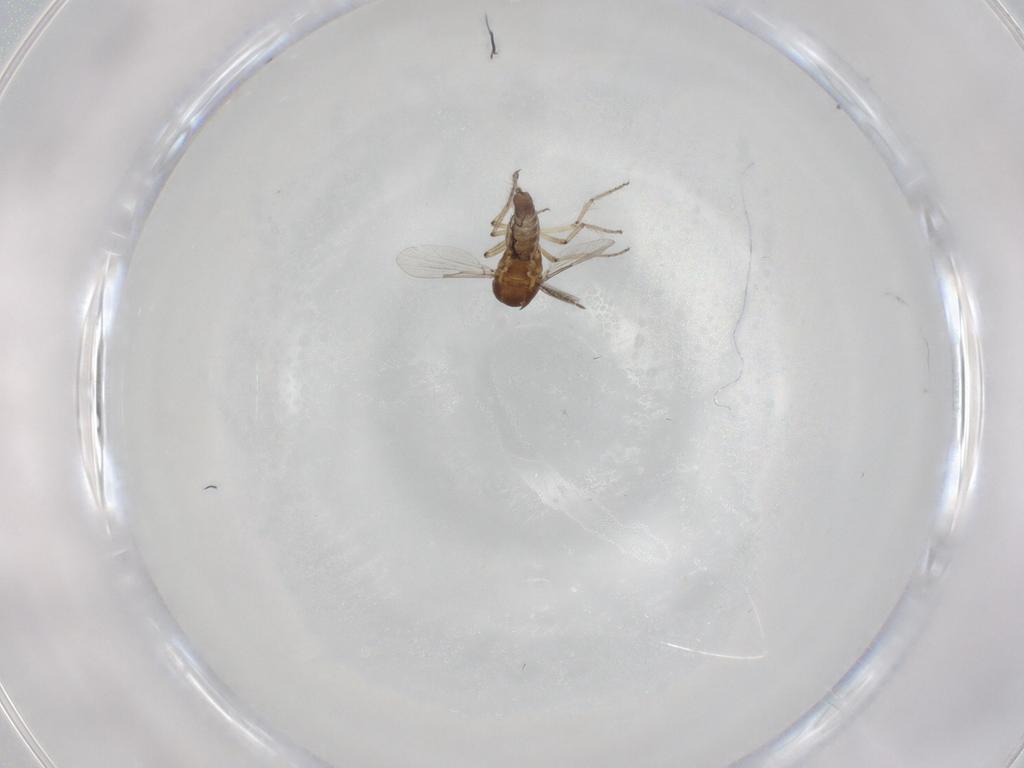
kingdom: Animalia
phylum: Arthropoda
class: Insecta
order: Diptera
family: Ceratopogonidae
